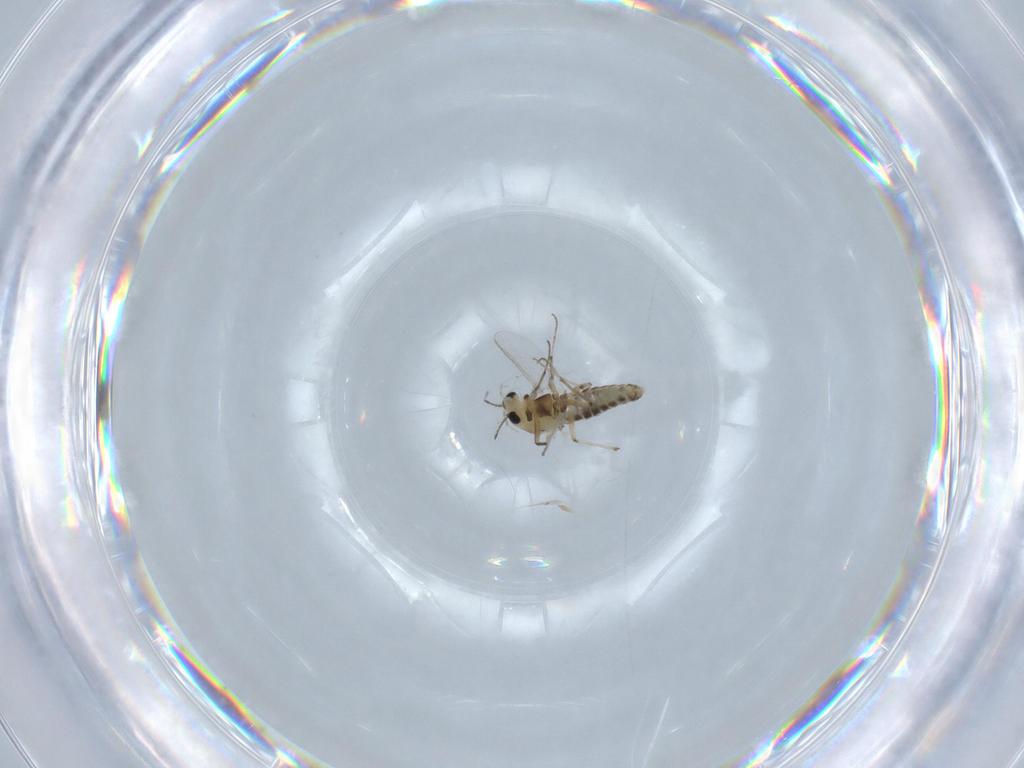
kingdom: Animalia
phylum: Arthropoda
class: Insecta
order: Diptera
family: Chironomidae
